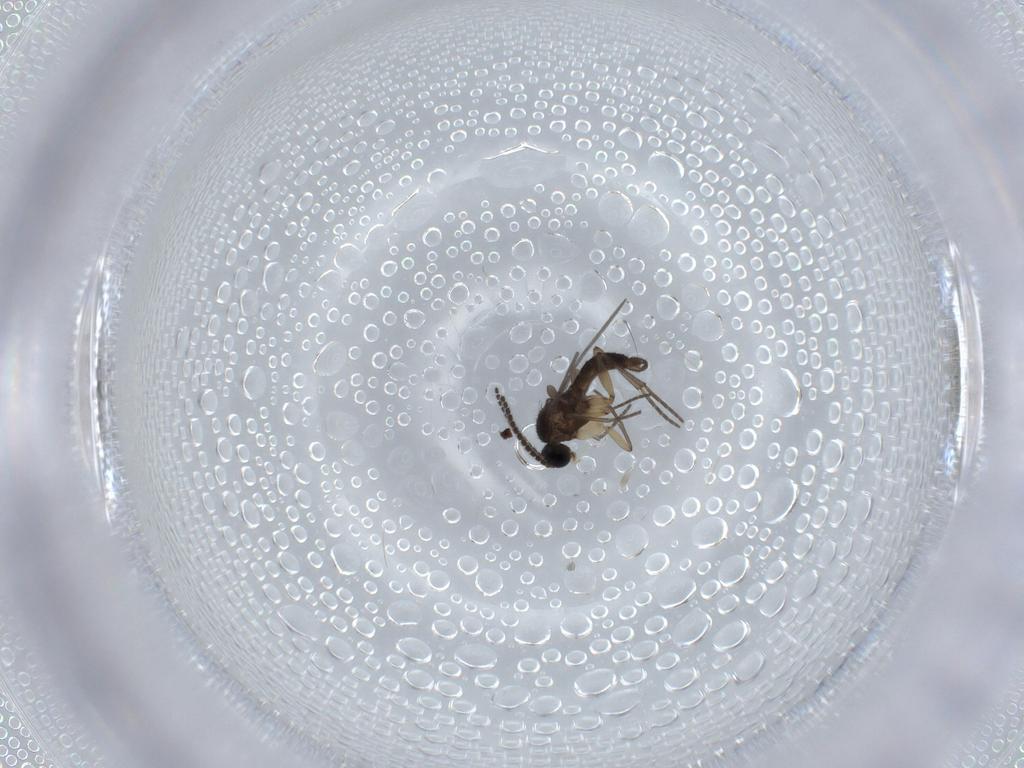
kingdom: Animalia
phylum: Arthropoda
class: Insecta
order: Diptera
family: Sciaridae
